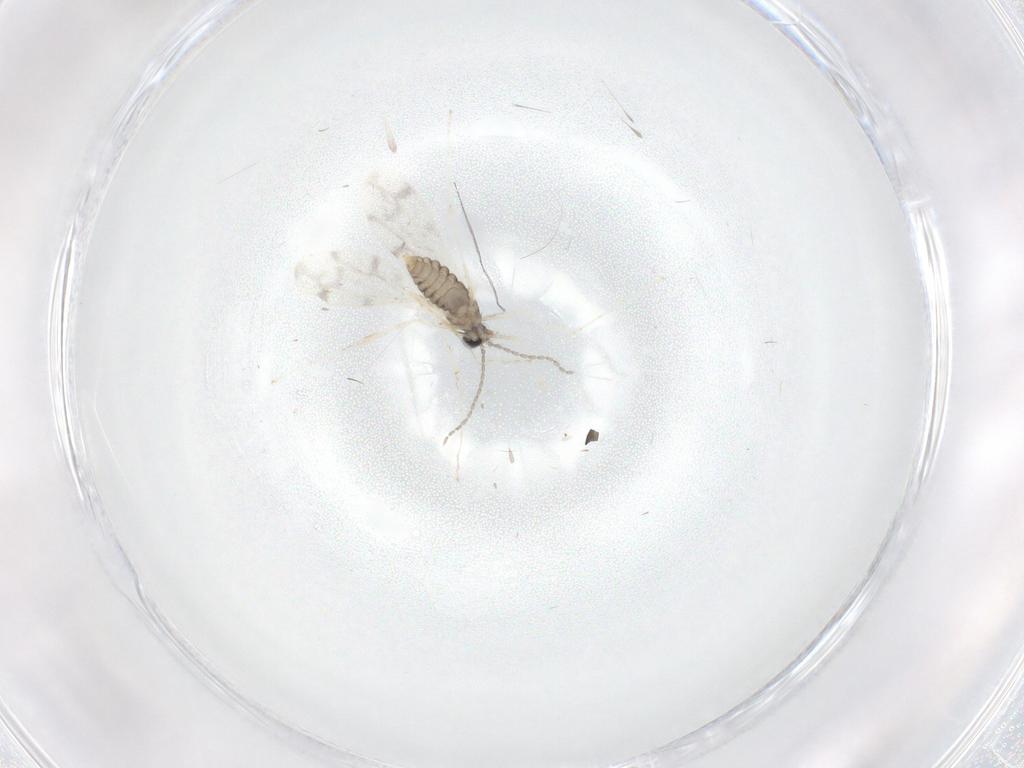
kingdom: Animalia
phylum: Arthropoda
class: Insecta
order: Diptera
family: Cecidomyiidae
